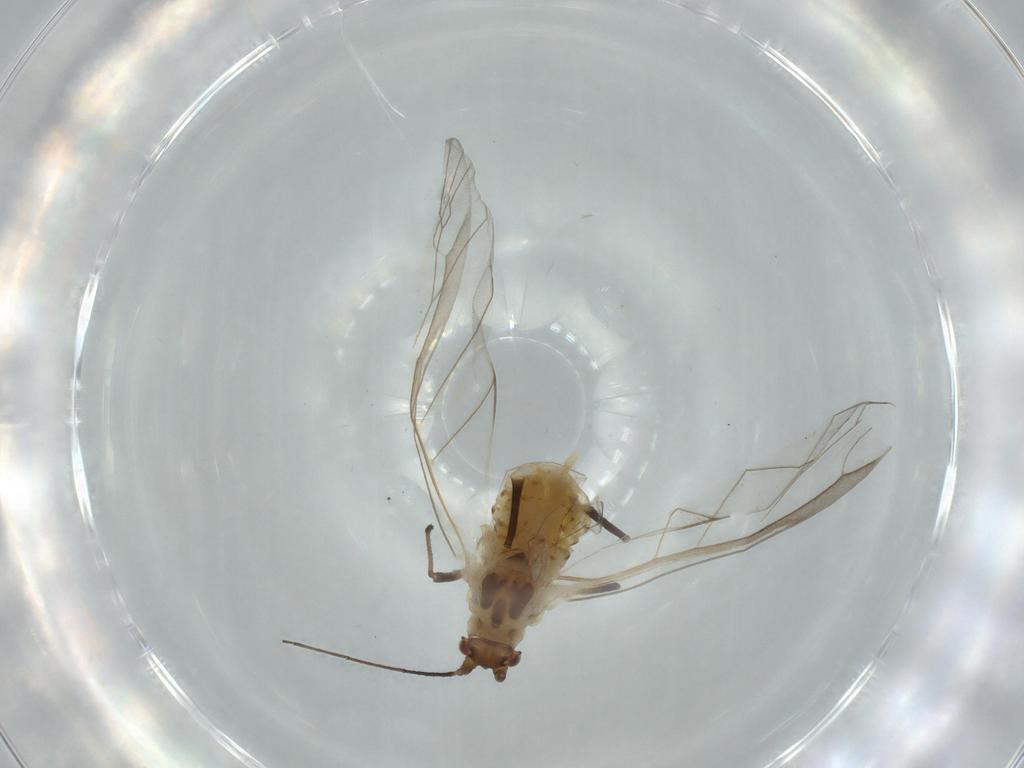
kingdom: Animalia
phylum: Arthropoda
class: Insecta
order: Hemiptera
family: Aphididae
